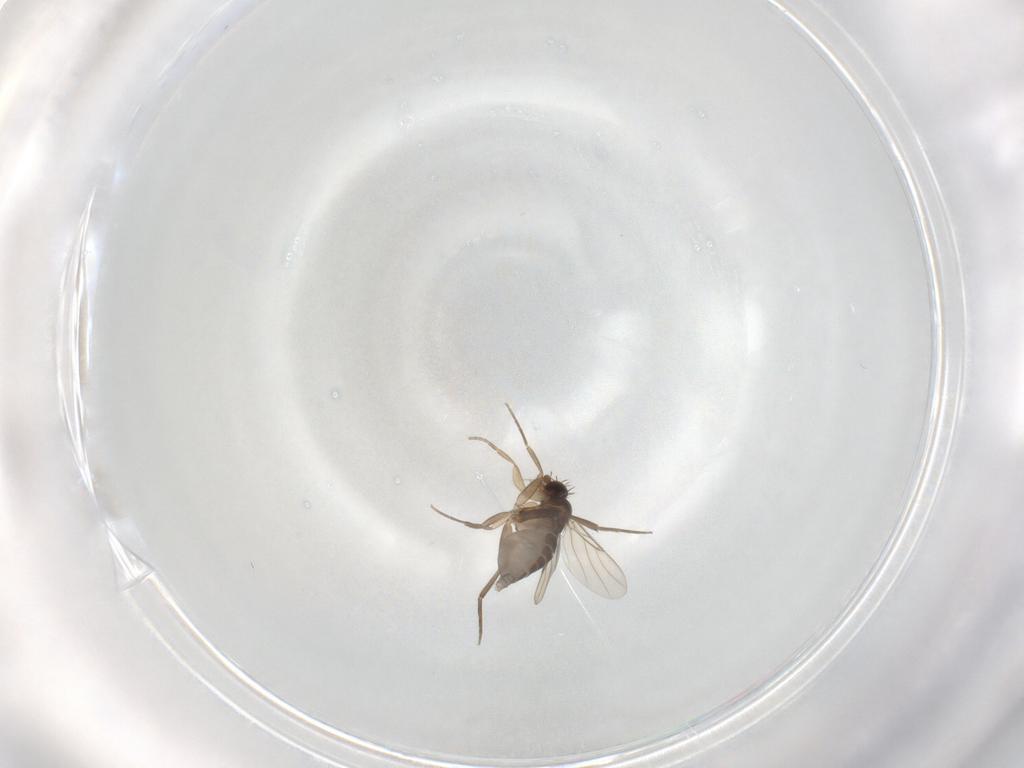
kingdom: Animalia
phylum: Arthropoda
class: Insecta
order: Diptera
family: Phoridae
